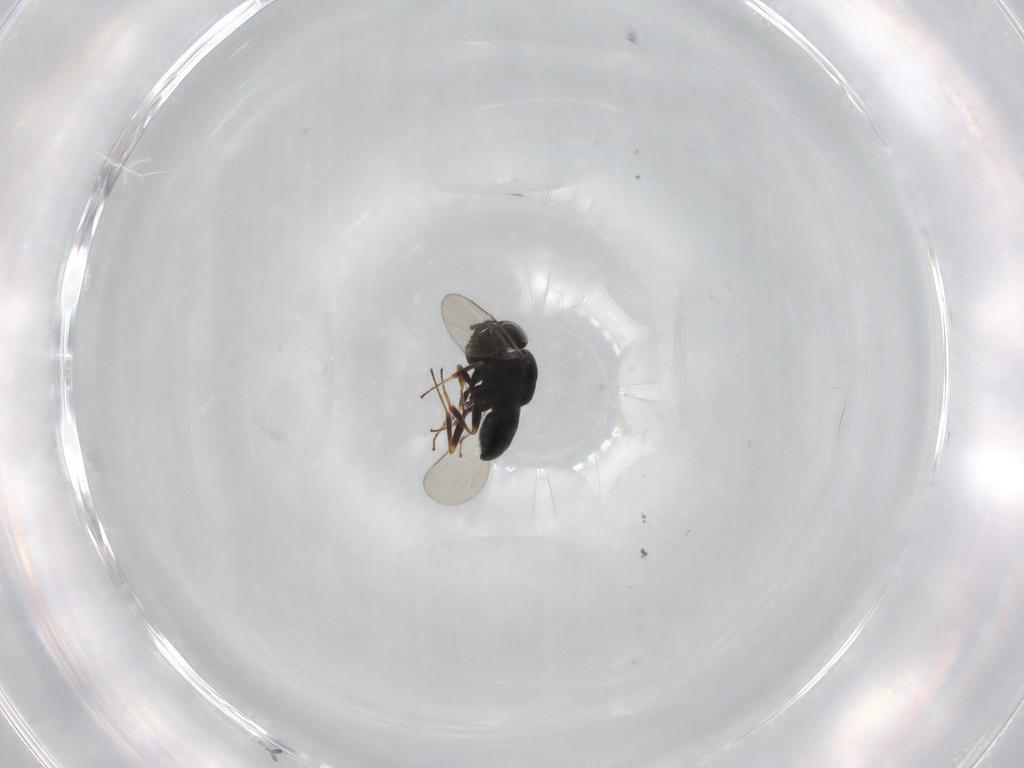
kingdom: Animalia
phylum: Arthropoda
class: Insecta
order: Hymenoptera
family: Scelionidae
